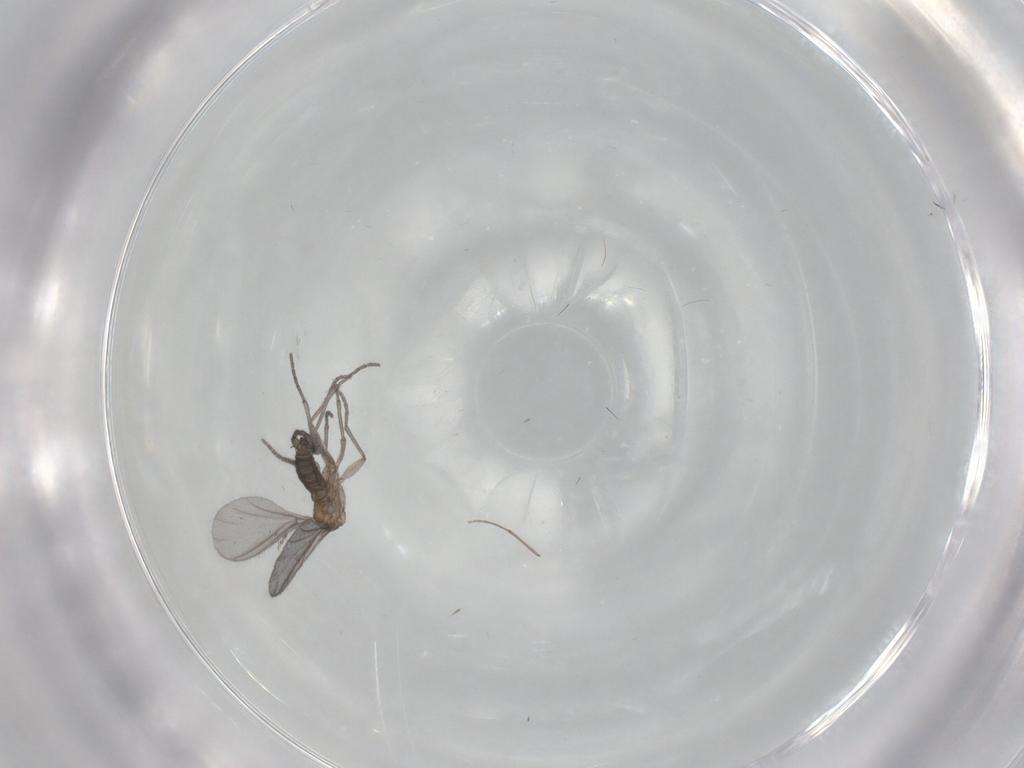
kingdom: Animalia
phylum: Arthropoda
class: Insecta
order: Diptera
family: Sciaridae
